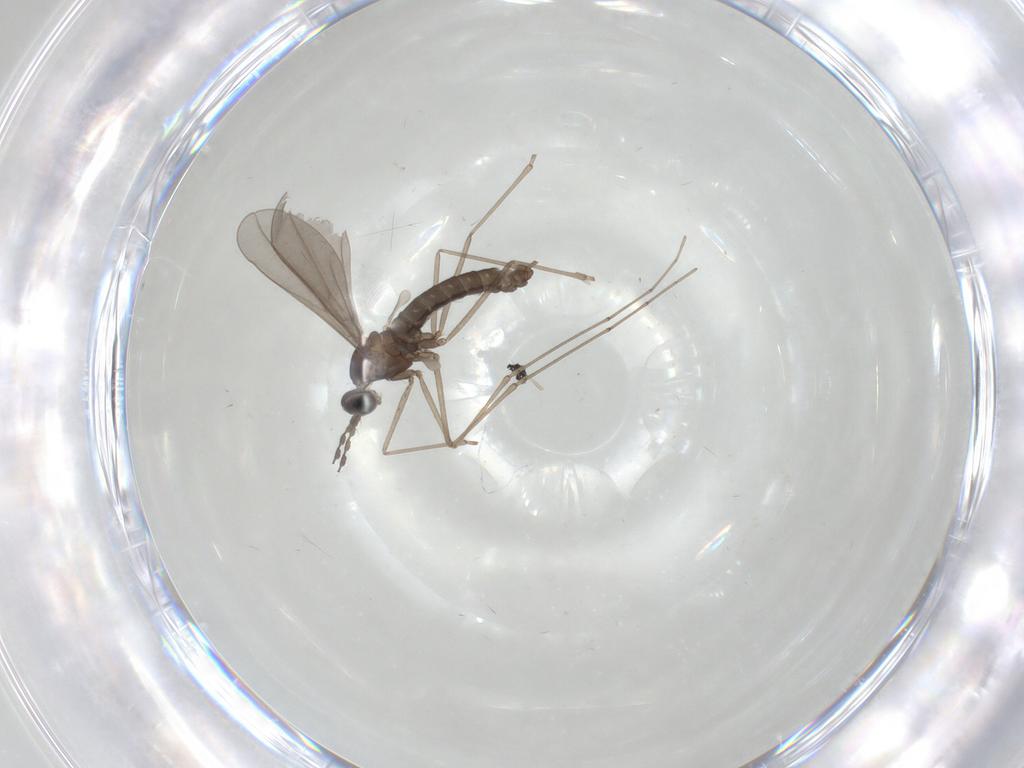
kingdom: Animalia
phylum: Arthropoda
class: Insecta
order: Diptera
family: Cecidomyiidae
